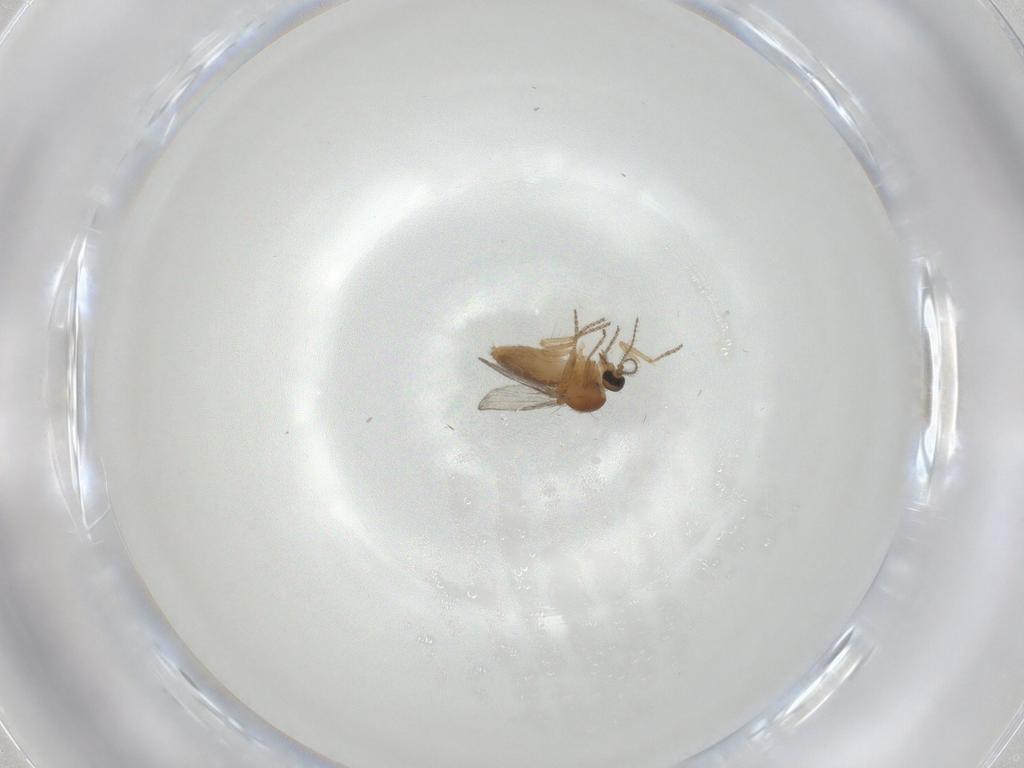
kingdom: Animalia
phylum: Arthropoda
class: Insecta
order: Diptera
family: Ceratopogonidae
